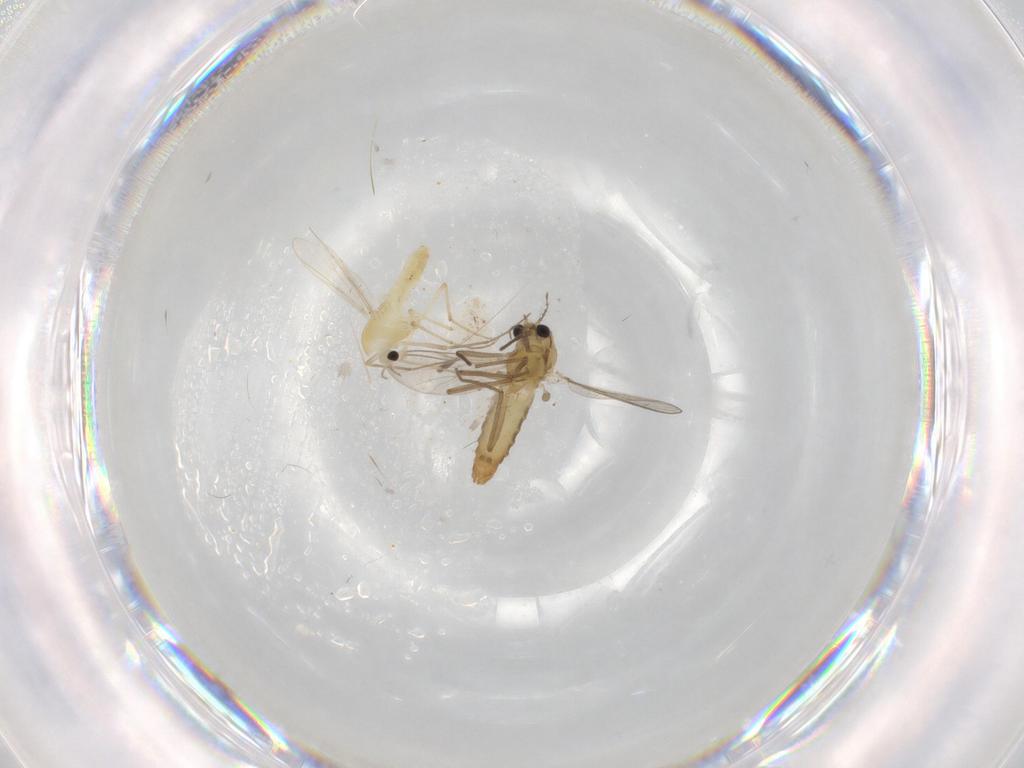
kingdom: Animalia
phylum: Arthropoda
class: Insecta
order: Diptera
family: Chironomidae
